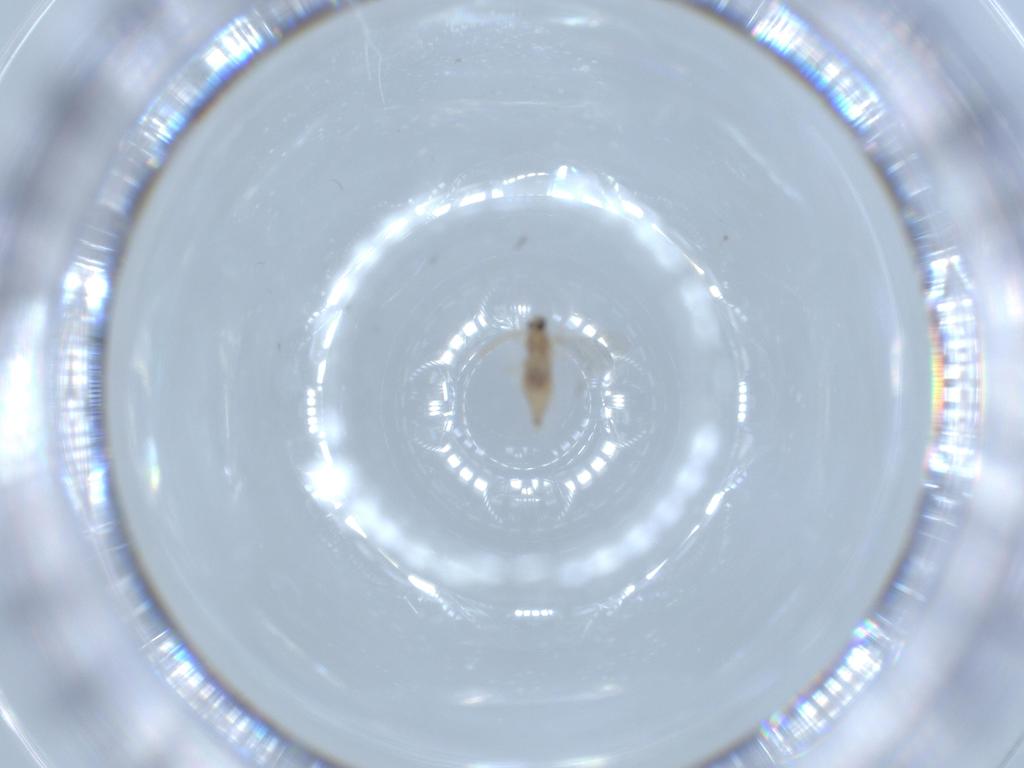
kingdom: Animalia
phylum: Arthropoda
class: Insecta
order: Diptera
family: Cecidomyiidae
